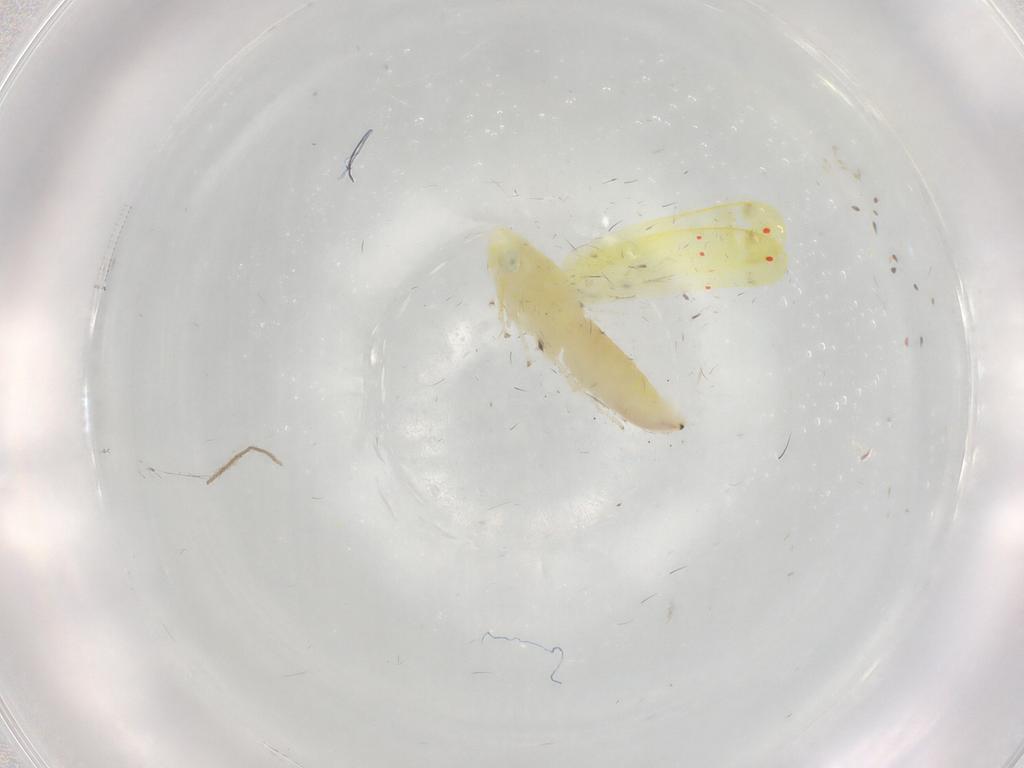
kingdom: Animalia
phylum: Arthropoda
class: Insecta
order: Hemiptera
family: Cicadellidae
